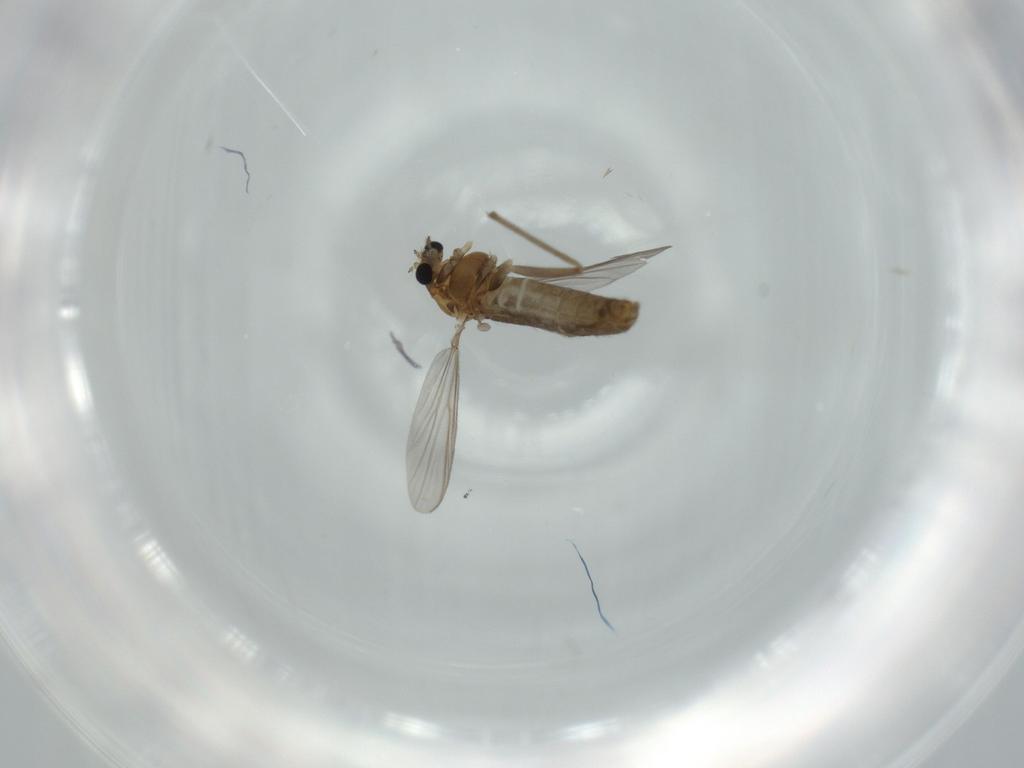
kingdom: Animalia
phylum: Arthropoda
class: Insecta
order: Diptera
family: Chironomidae
